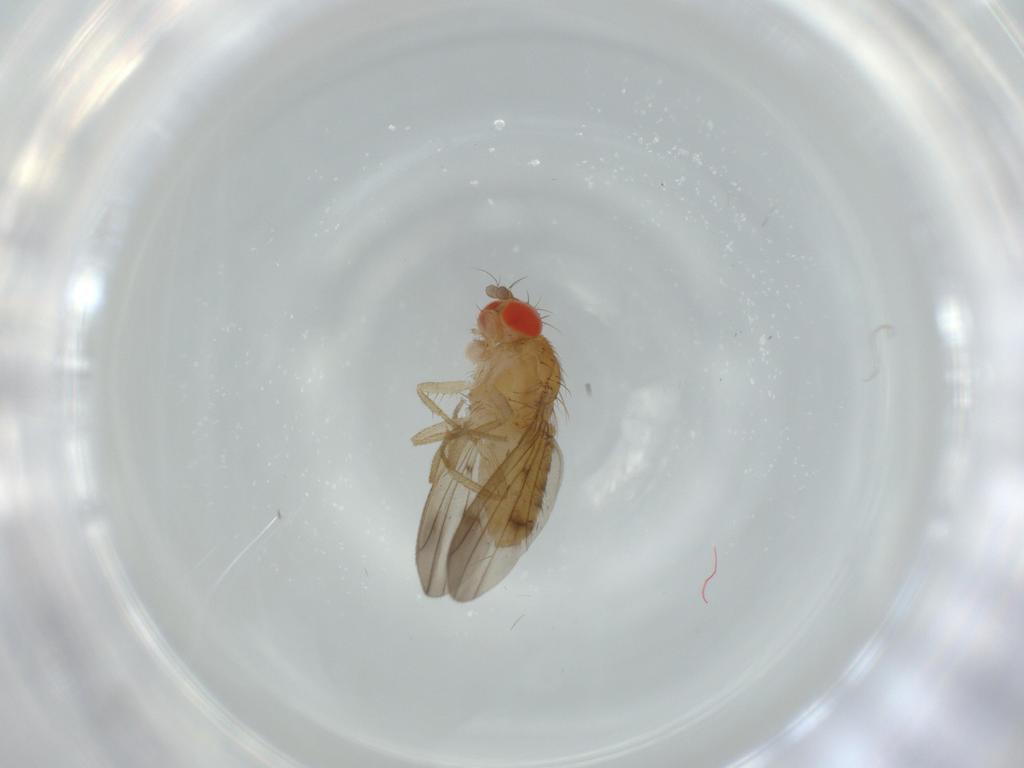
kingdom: Animalia
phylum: Arthropoda
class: Insecta
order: Diptera
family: Drosophilidae
